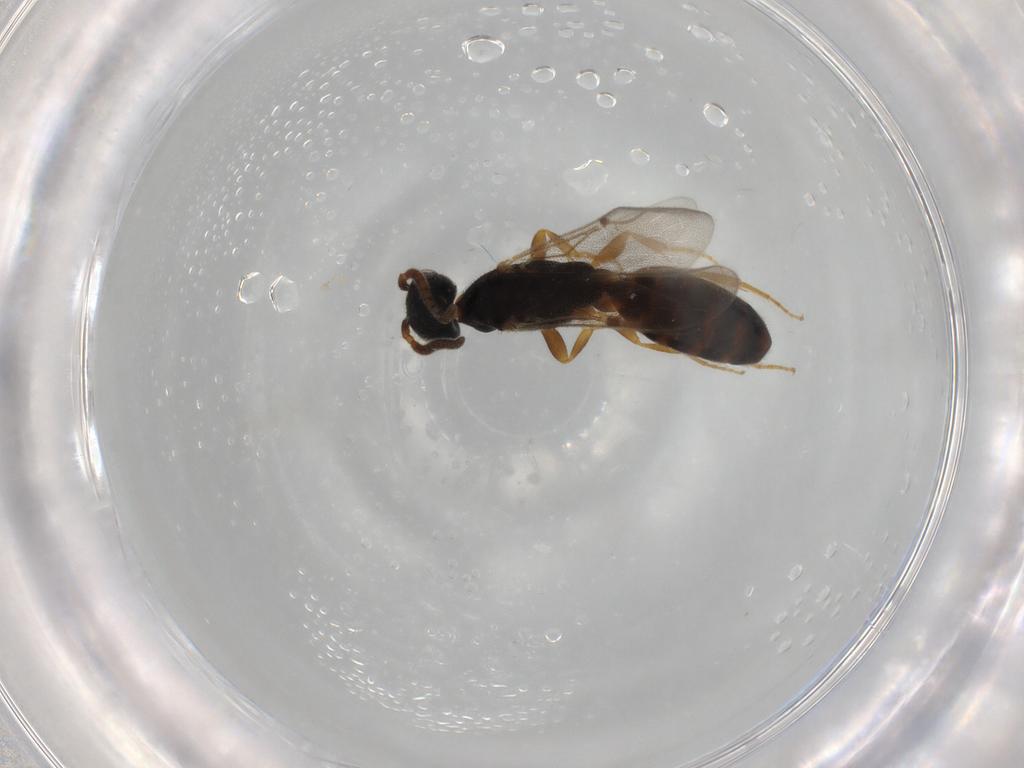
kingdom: Animalia
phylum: Arthropoda
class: Insecta
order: Hymenoptera
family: Bethylidae
